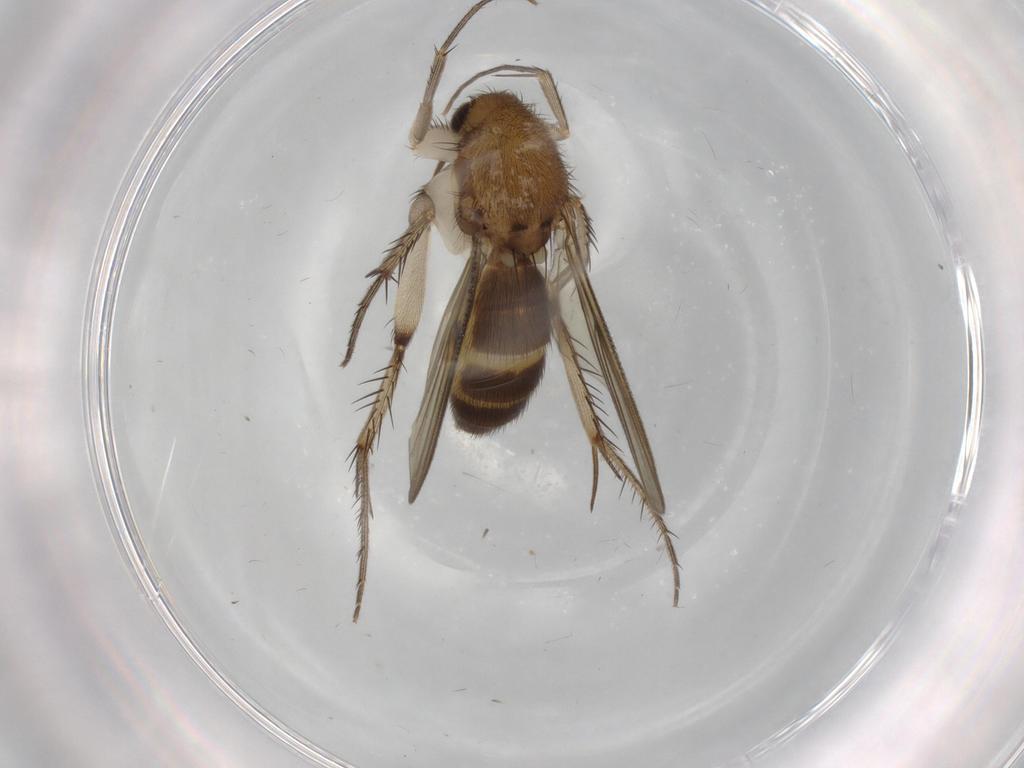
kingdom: Animalia
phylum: Arthropoda
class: Insecta
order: Diptera
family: Mycetophilidae
